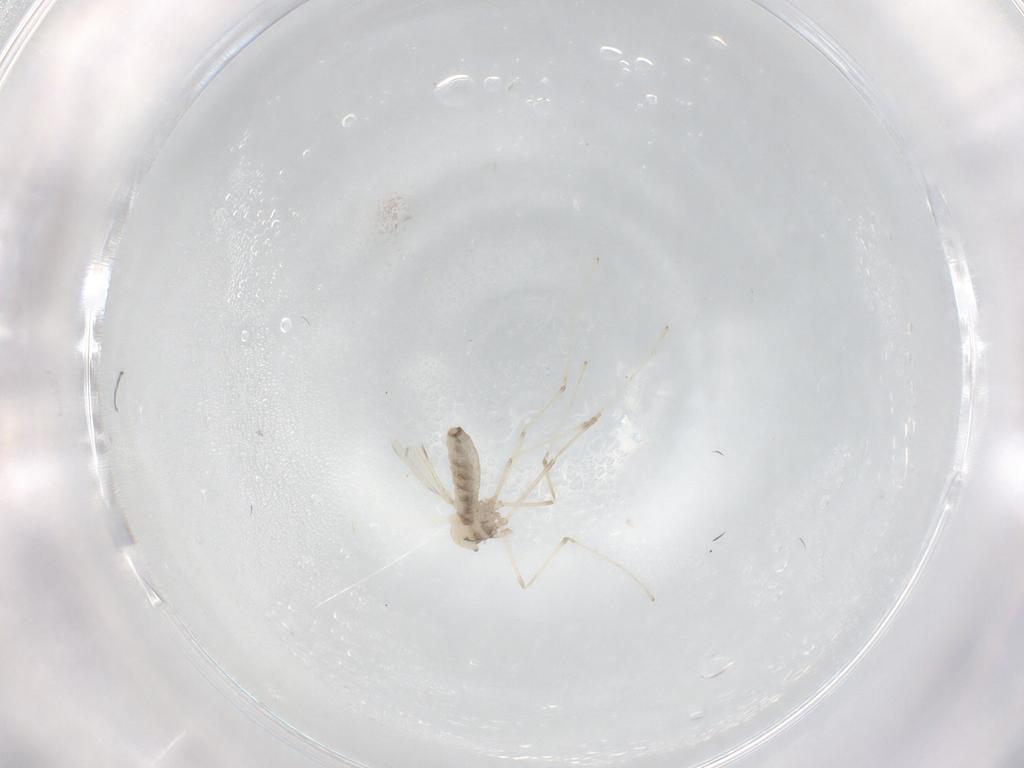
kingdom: Animalia
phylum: Arthropoda
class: Insecta
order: Diptera
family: Cecidomyiidae
